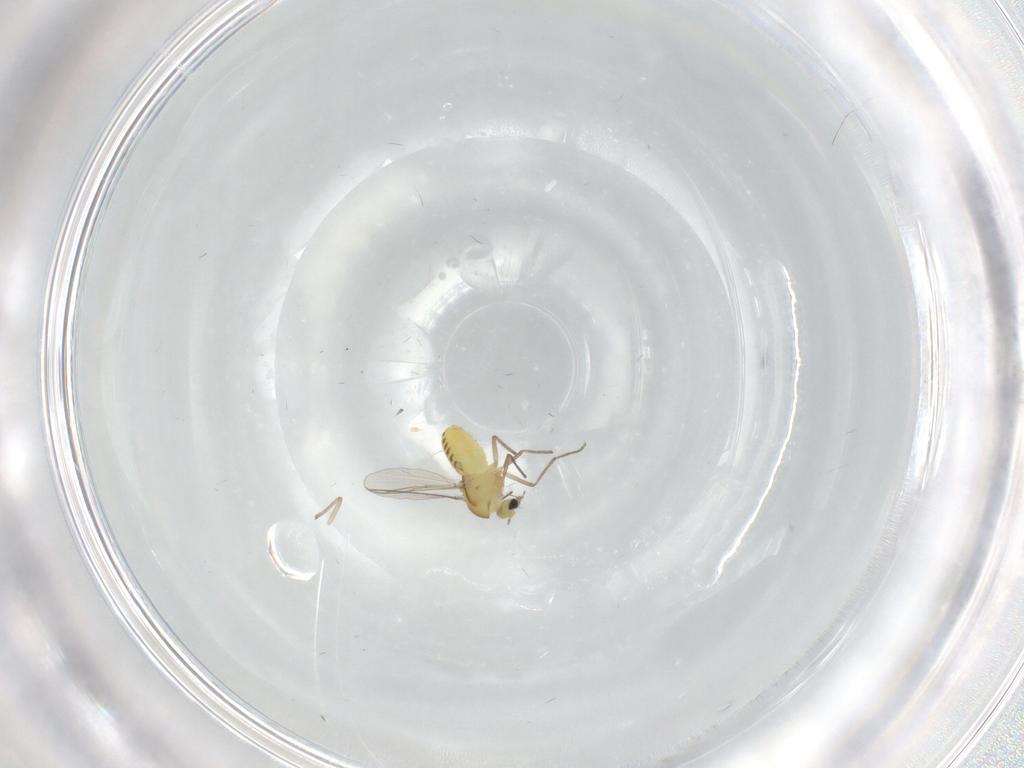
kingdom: Animalia
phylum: Arthropoda
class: Insecta
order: Diptera
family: Chironomidae
